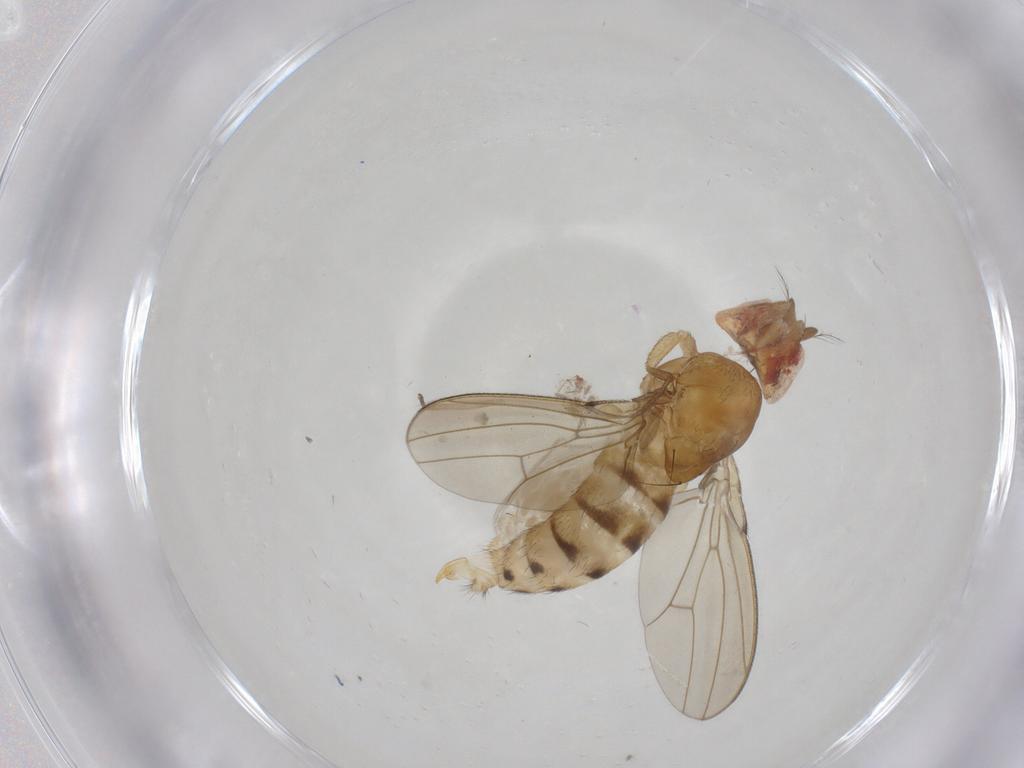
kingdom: Animalia
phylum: Arthropoda
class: Insecta
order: Diptera
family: Drosophilidae
